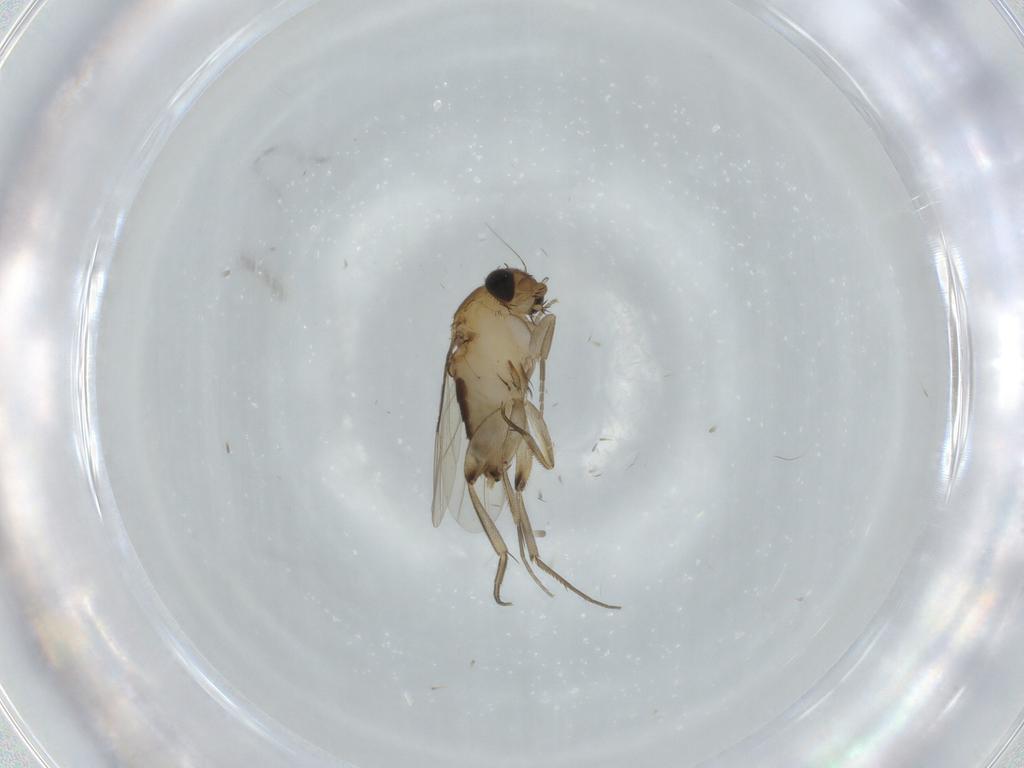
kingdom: Animalia
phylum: Arthropoda
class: Insecta
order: Diptera
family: Phoridae
